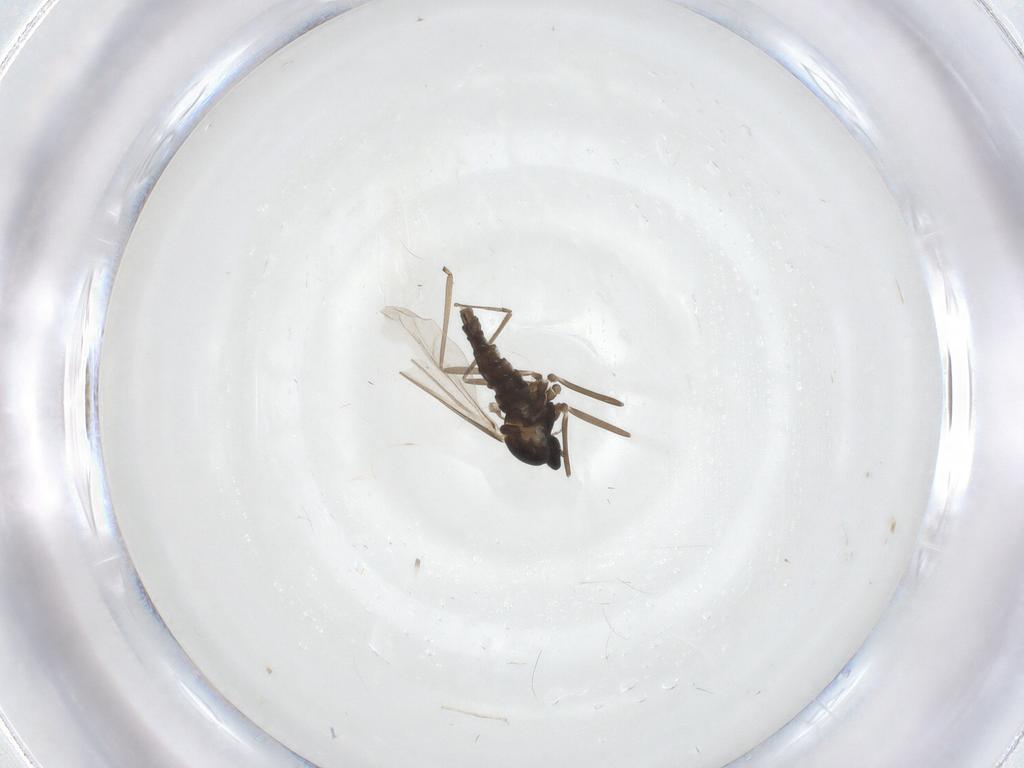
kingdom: Animalia
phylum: Arthropoda
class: Insecta
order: Diptera
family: Cecidomyiidae
